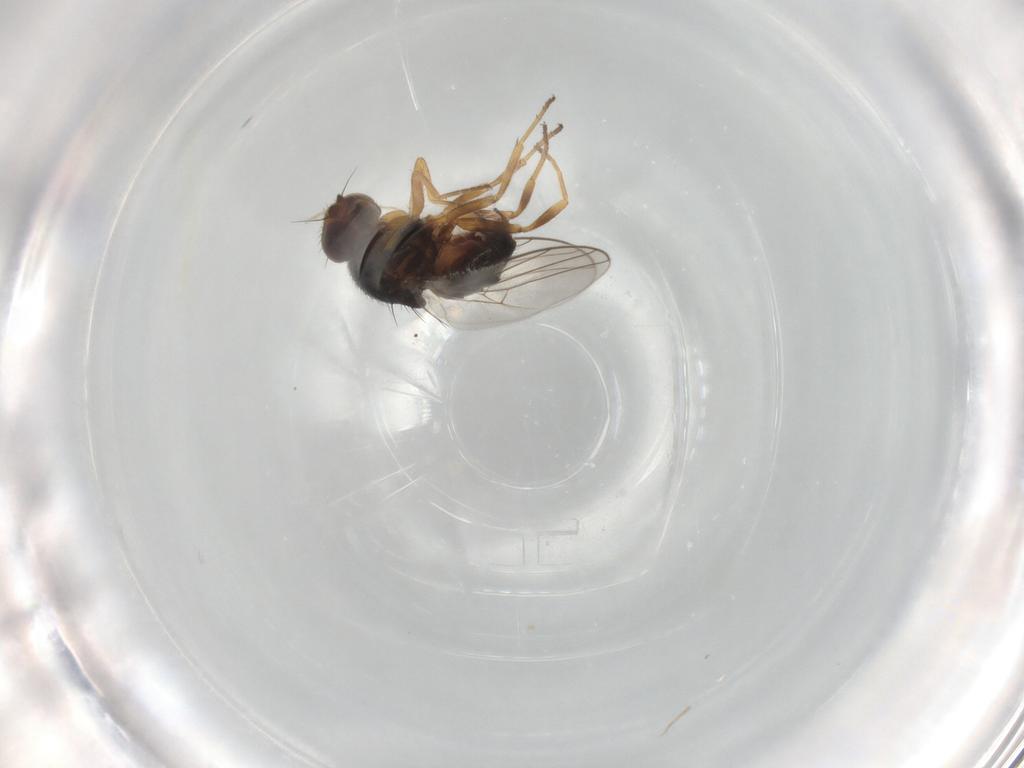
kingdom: Animalia
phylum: Arthropoda
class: Insecta
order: Diptera
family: Chloropidae
